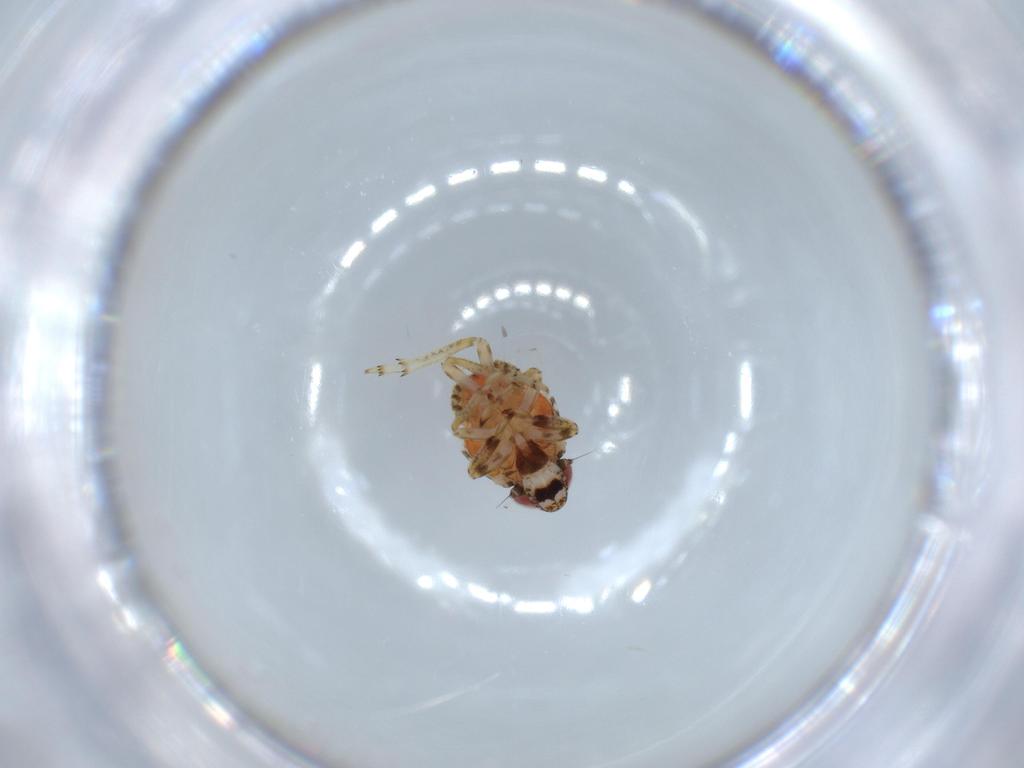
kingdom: Animalia
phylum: Arthropoda
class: Insecta
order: Hemiptera
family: Issidae
